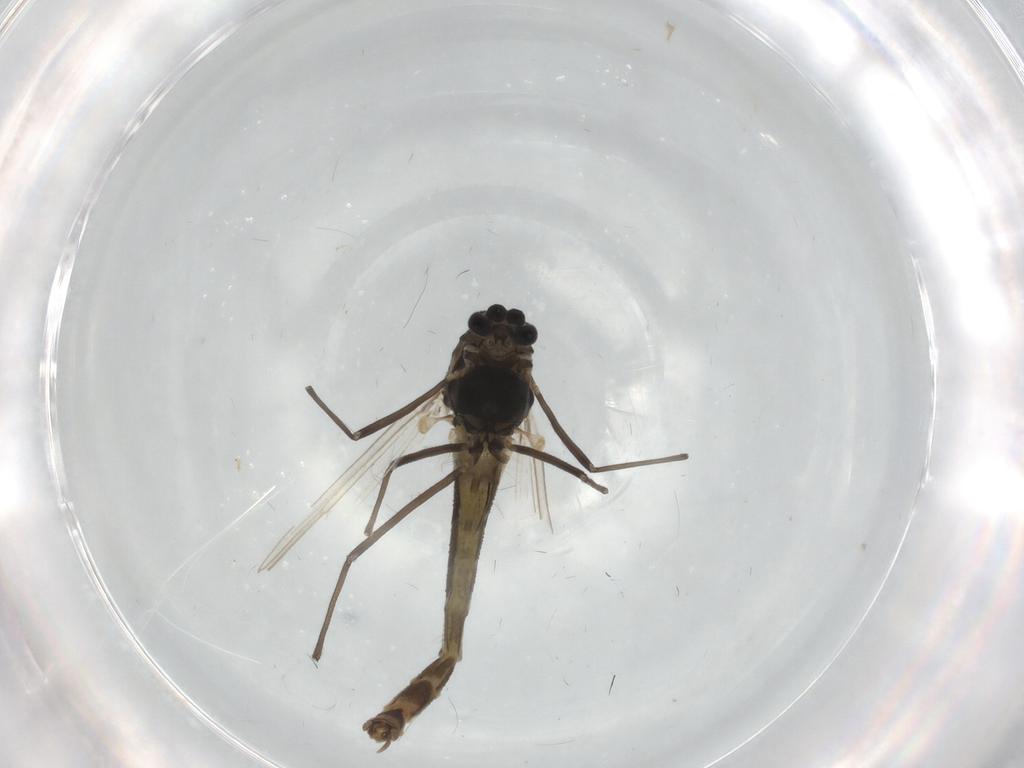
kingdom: Animalia
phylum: Arthropoda
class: Insecta
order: Diptera
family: Chironomidae
